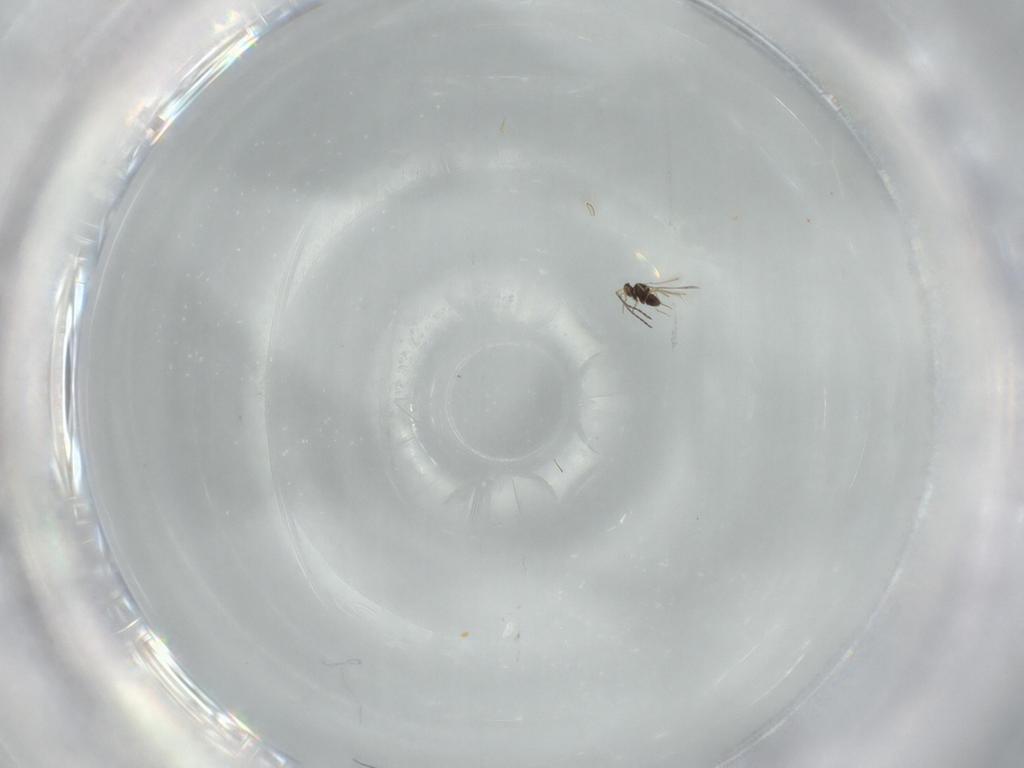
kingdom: Animalia
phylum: Arthropoda
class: Insecta
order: Hymenoptera
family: Mymaridae
